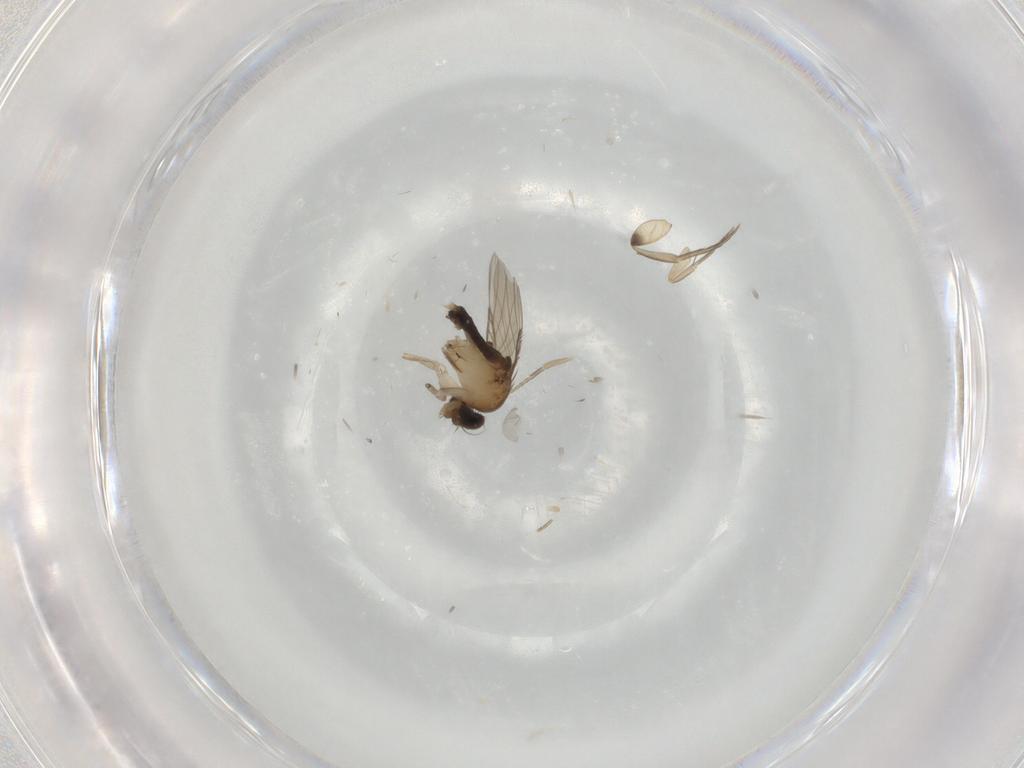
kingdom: Animalia
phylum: Arthropoda
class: Insecta
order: Diptera
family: Phoridae
